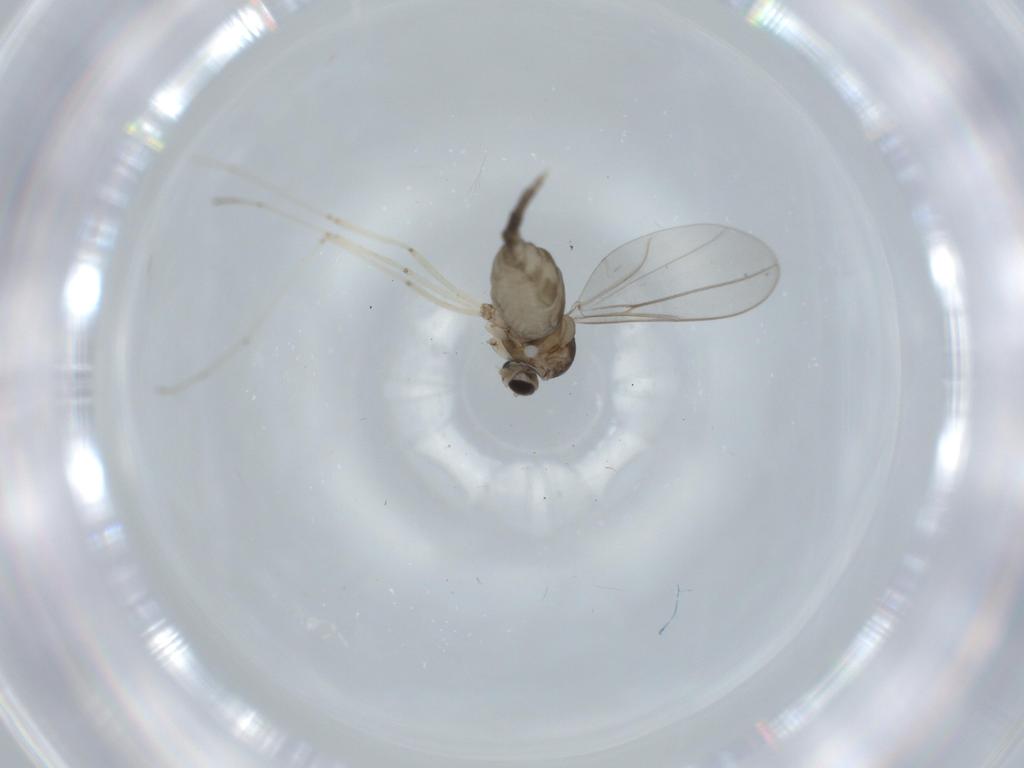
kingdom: Animalia
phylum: Arthropoda
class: Insecta
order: Diptera
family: Cecidomyiidae
